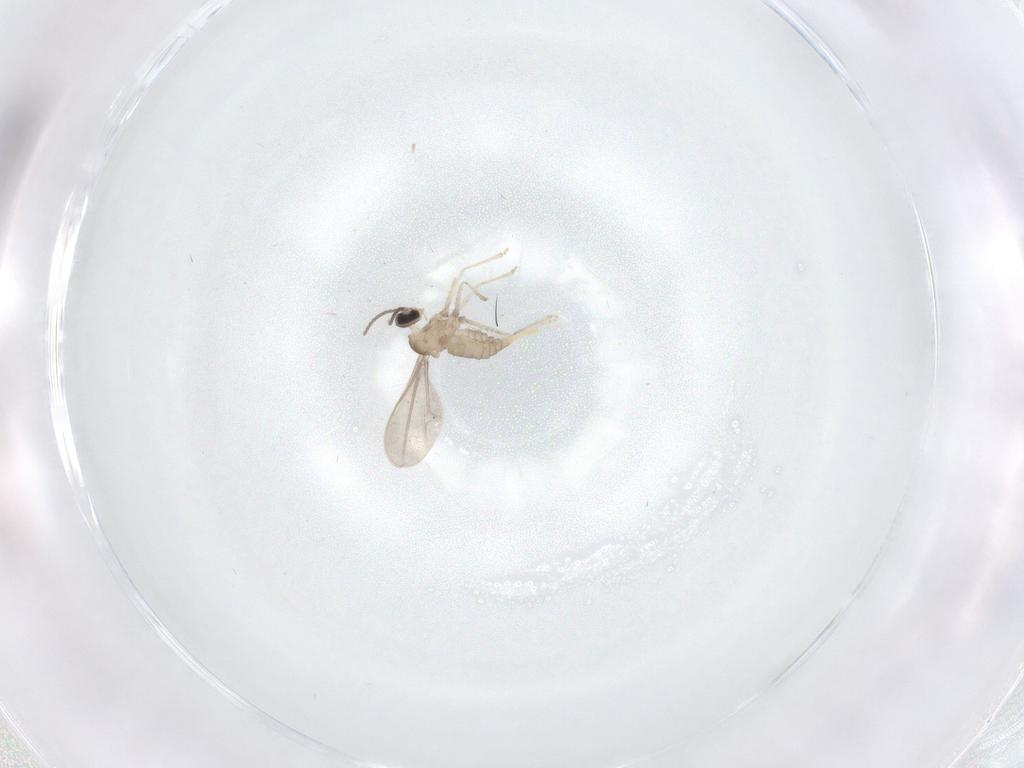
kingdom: Animalia
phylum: Arthropoda
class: Insecta
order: Diptera
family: Cecidomyiidae
